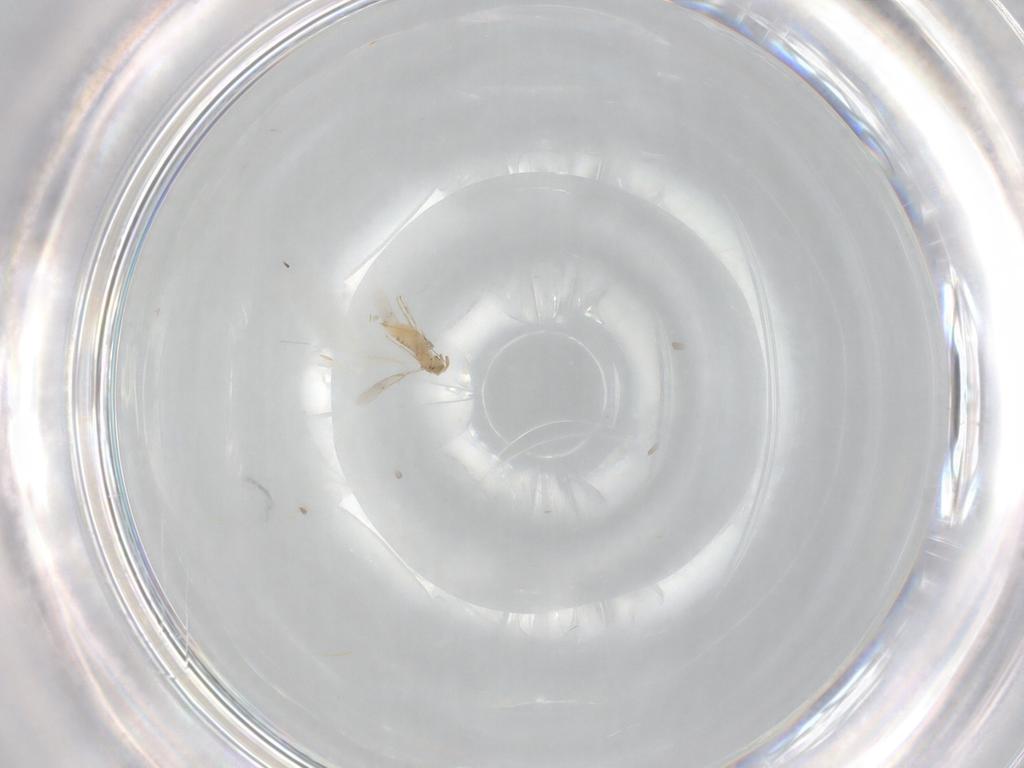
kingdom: Animalia
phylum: Arthropoda
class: Insecta
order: Hymenoptera
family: Aphelinidae
